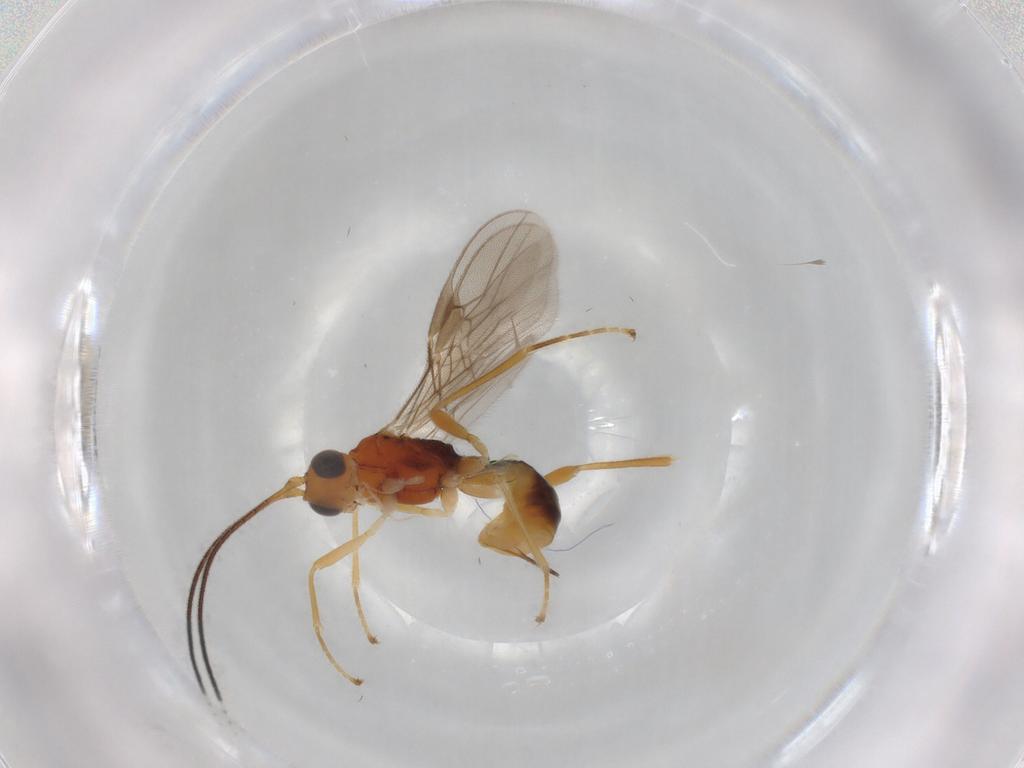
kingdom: Animalia
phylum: Arthropoda
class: Insecta
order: Hymenoptera
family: Braconidae
